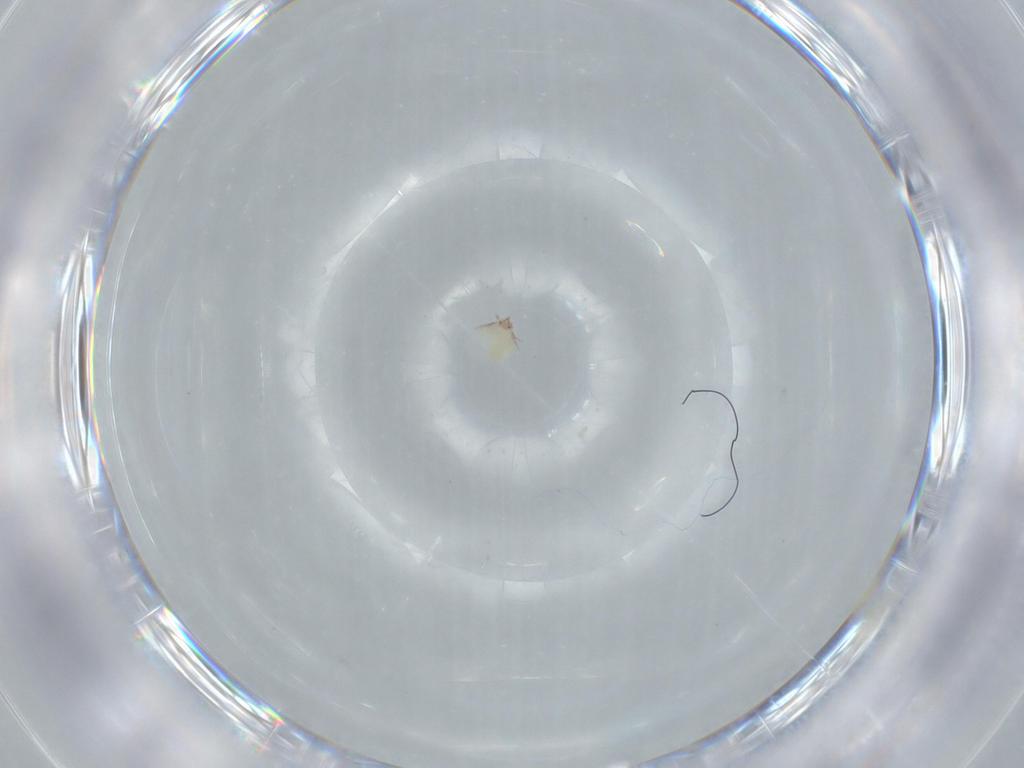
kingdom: Animalia
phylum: Arthropoda
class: Arachnida
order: Sarcoptiformes
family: Epidermoptidae
